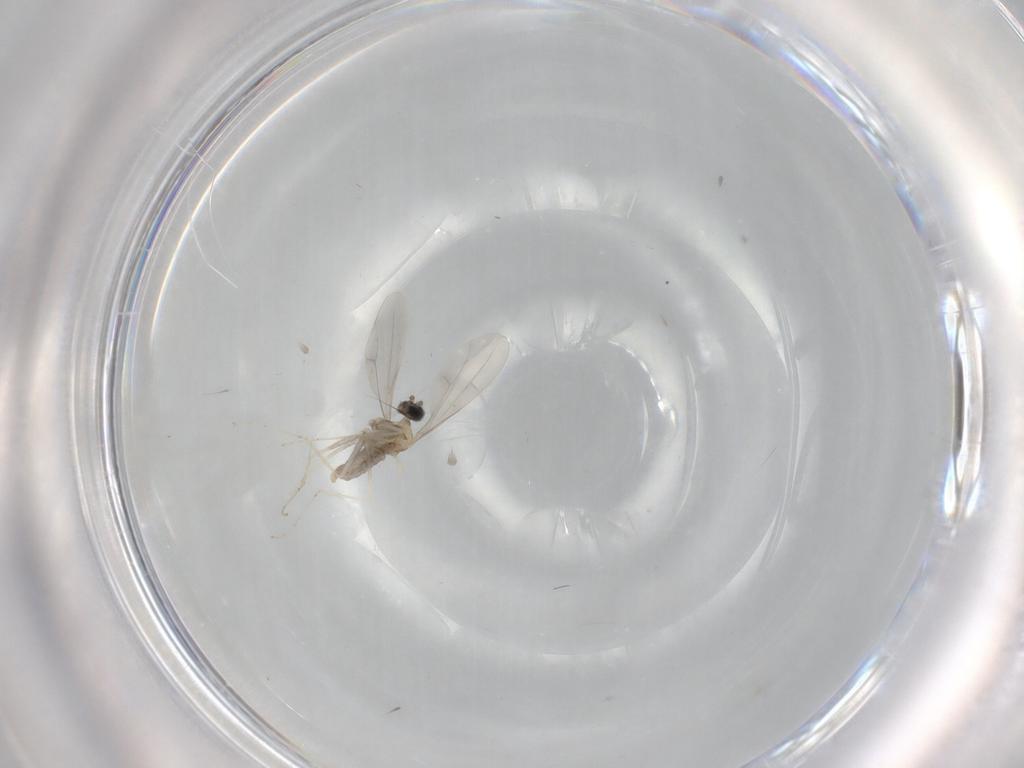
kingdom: Animalia
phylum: Arthropoda
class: Insecta
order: Diptera
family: Cecidomyiidae
